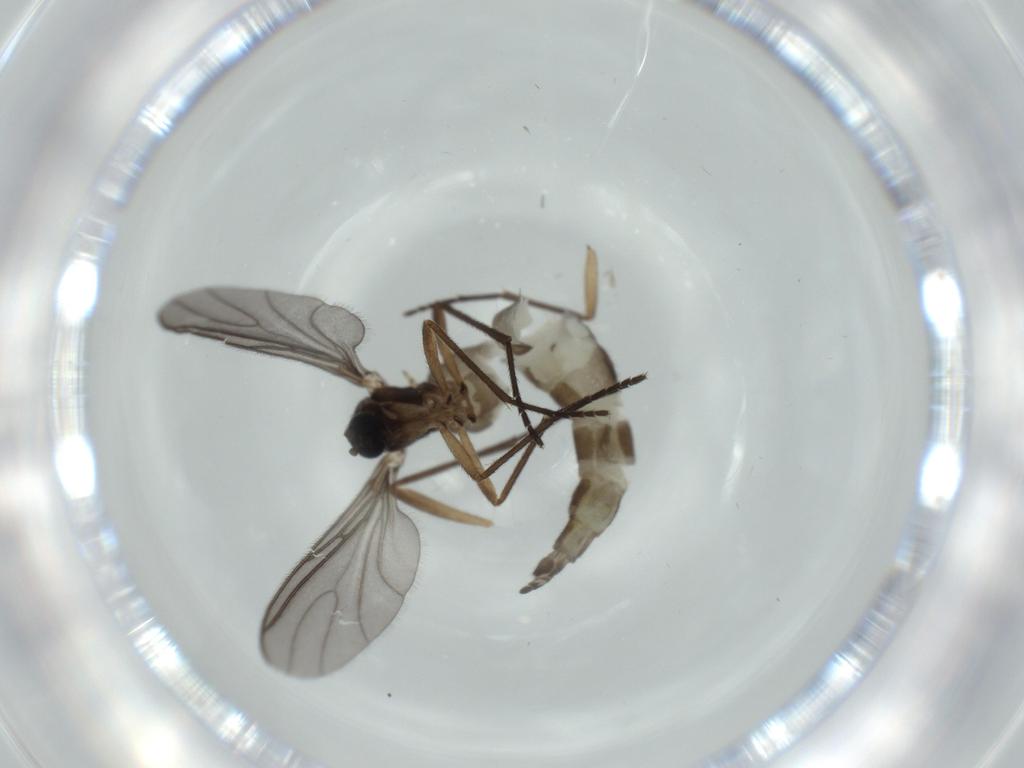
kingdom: Animalia
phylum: Arthropoda
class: Insecta
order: Diptera
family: Sciaridae
